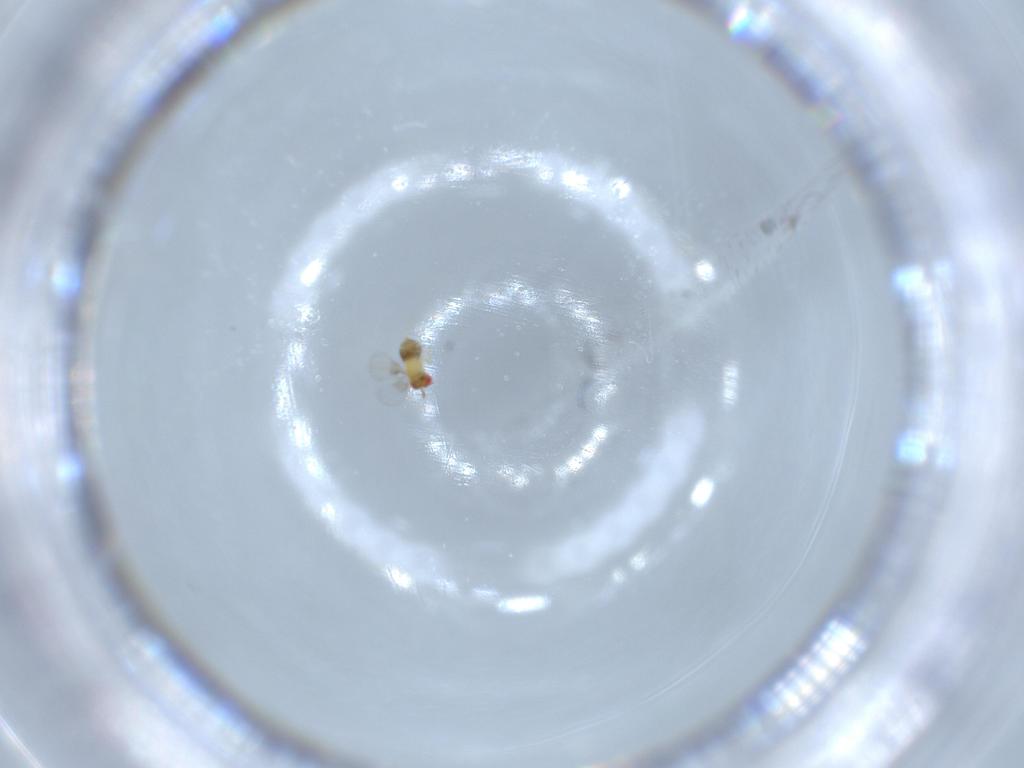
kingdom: Animalia
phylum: Arthropoda
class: Insecta
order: Hymenoptera
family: Trichogrammatidae
